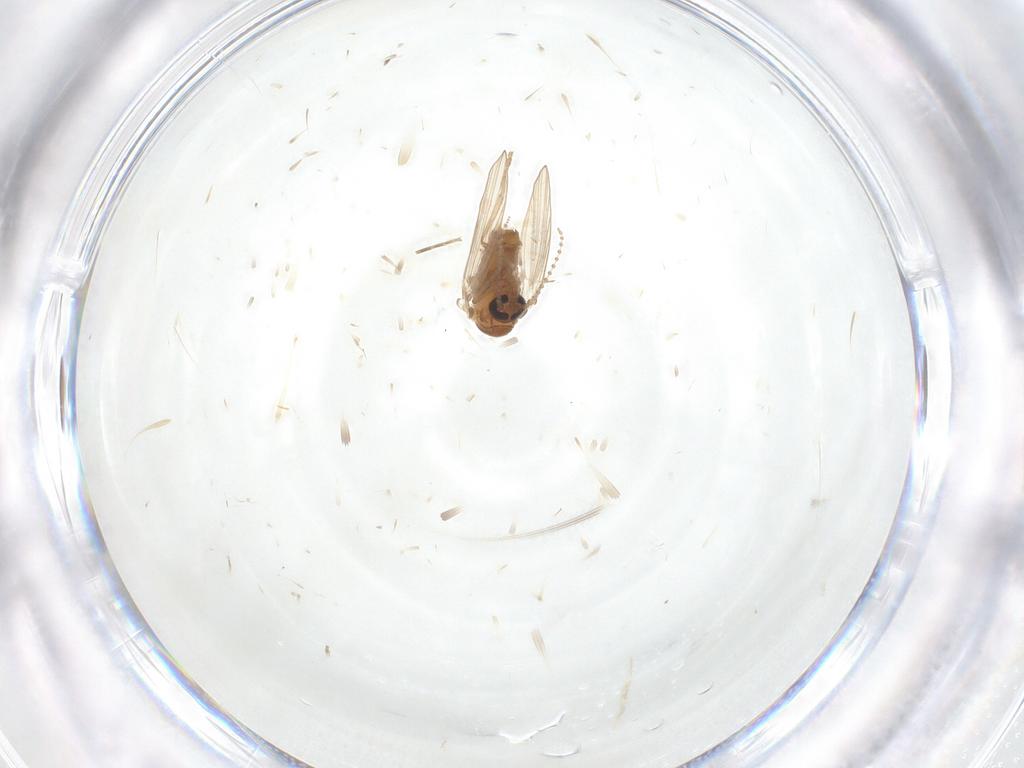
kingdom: Animalia
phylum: Arthropoda
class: Insecta
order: Diptera
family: Psychodidae
